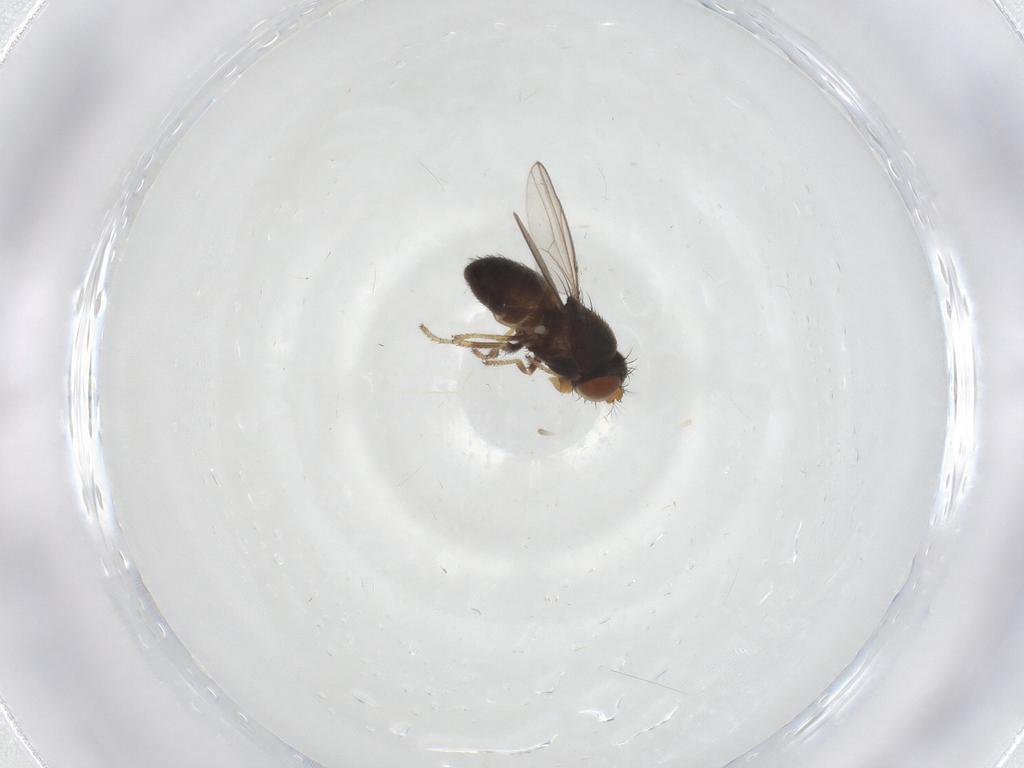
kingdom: Animalia
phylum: Arthropoda
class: Insecta
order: Diptera
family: Ephydridae
